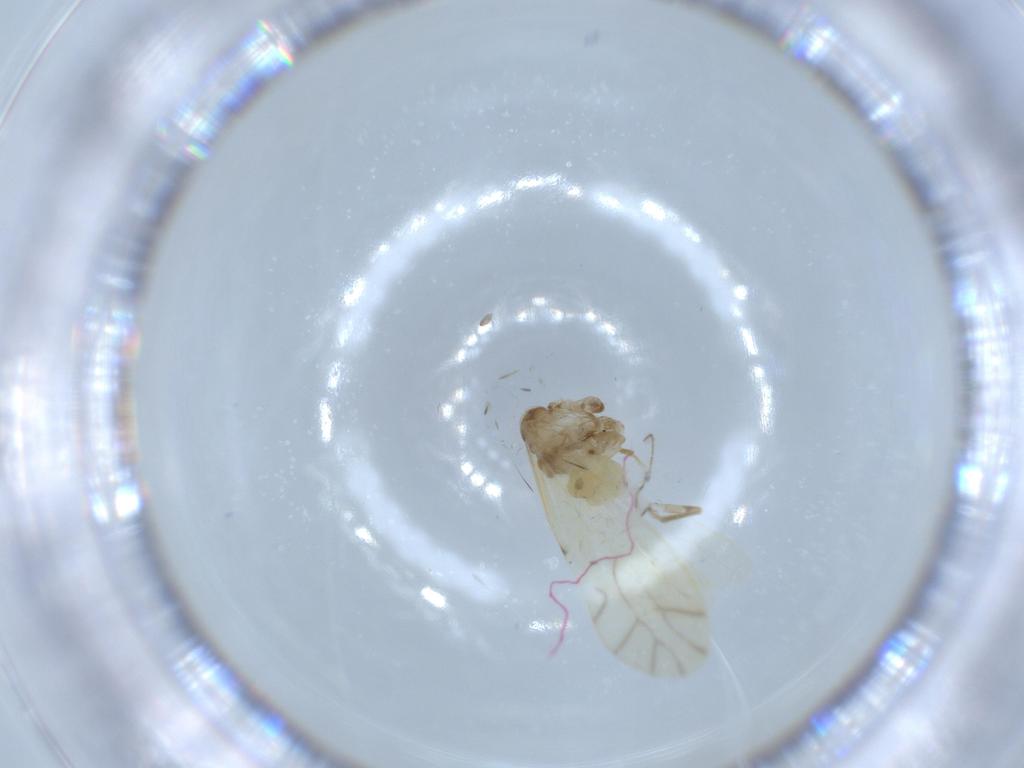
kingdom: Animalia
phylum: Arthropoda
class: Insecta
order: Psocodea
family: Caeciliusidae
